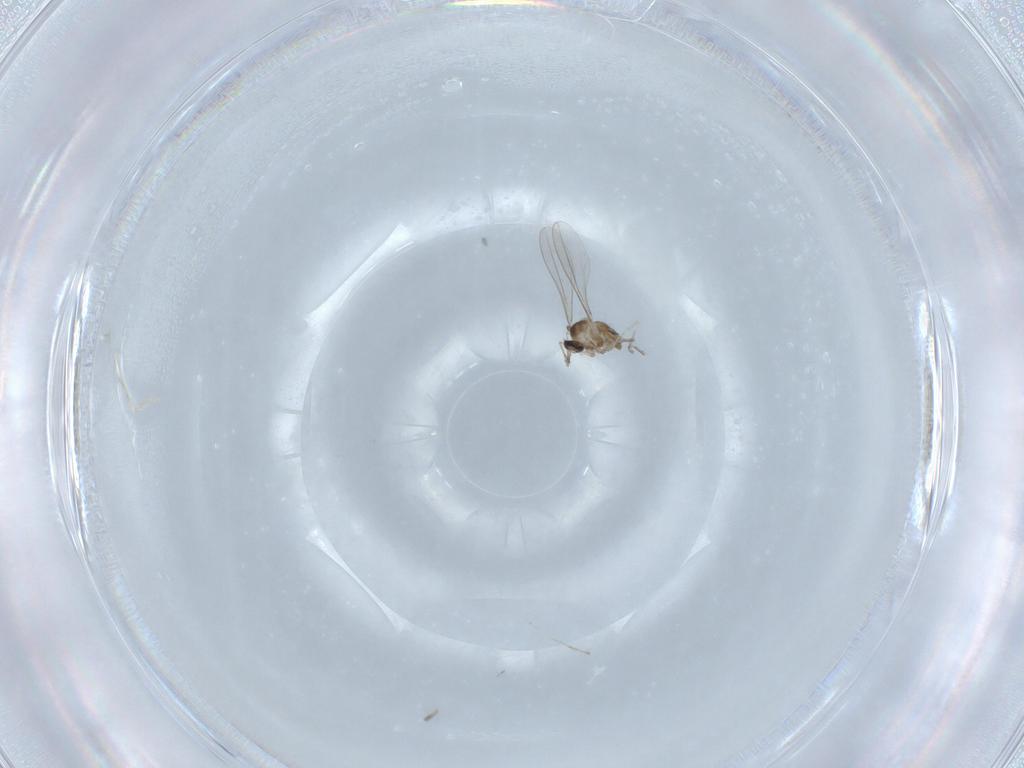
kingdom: Animalia
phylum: Arthropoda
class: Insecta
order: Diptera
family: Cecidomyiidae
